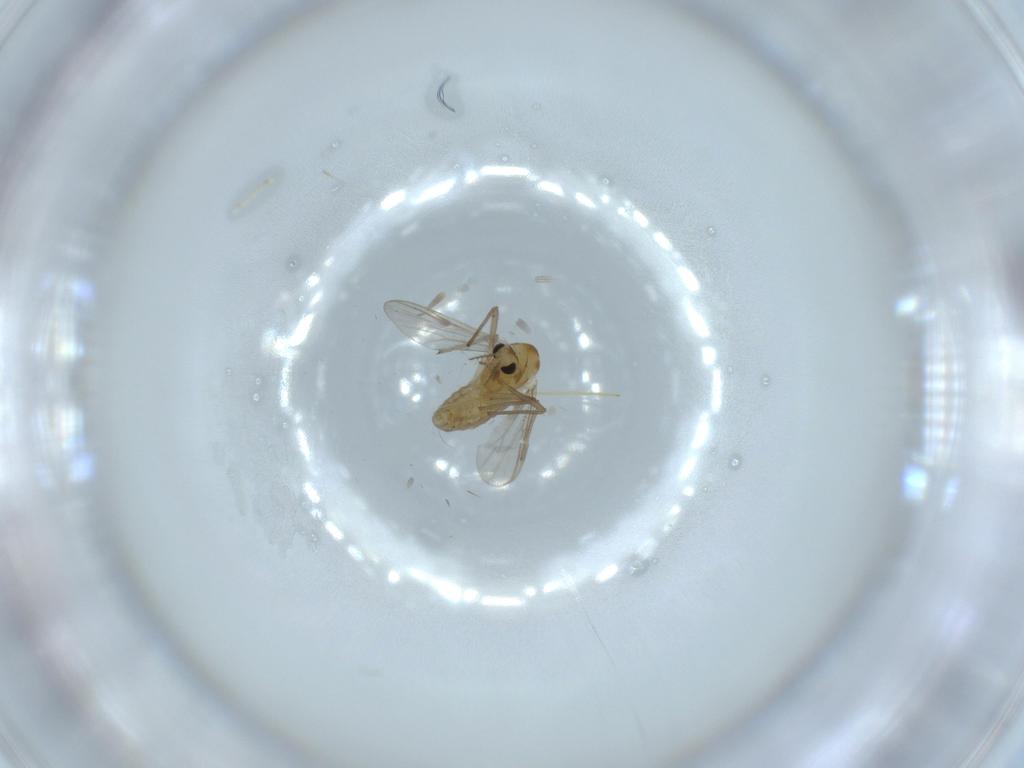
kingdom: Animalia
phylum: Arthropoda
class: Insecta
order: Diptera
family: Chironomidae
